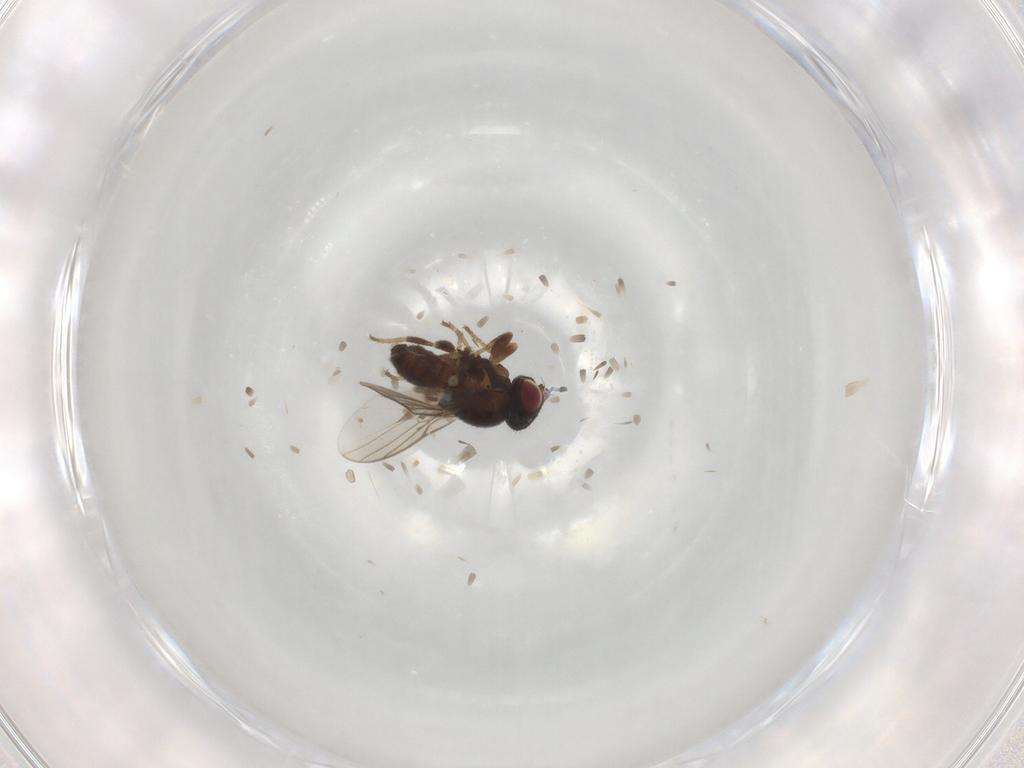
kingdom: Animalia
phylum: Arthropoda
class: Insecta
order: Diptera
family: Chloropidae
